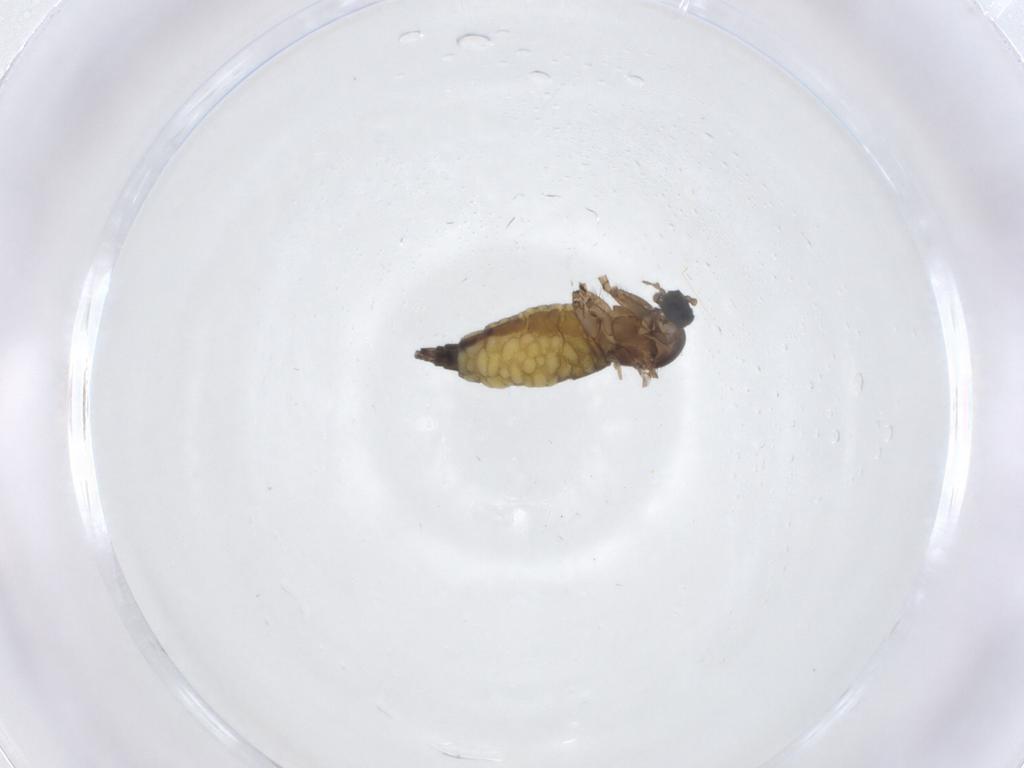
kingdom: Animalia
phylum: Arthropoda
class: Insecta
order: Diptera
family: Sciaridae
